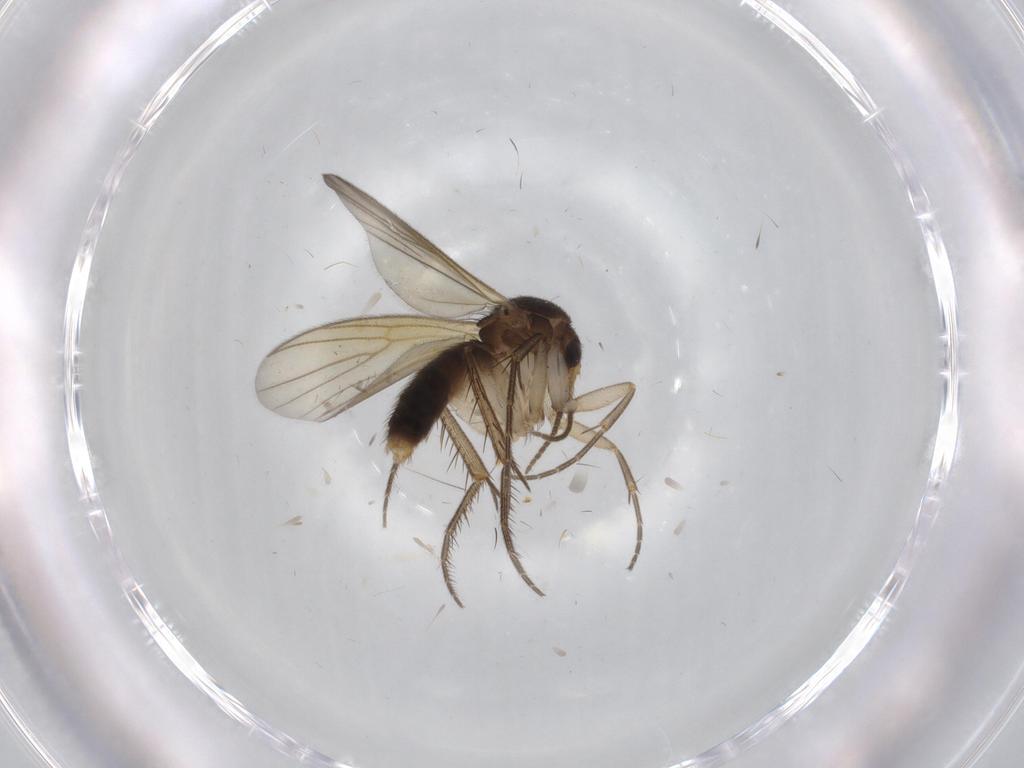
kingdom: Animalia
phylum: Arthropoda
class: Insecta
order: Diptera
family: Mycetophilidae
